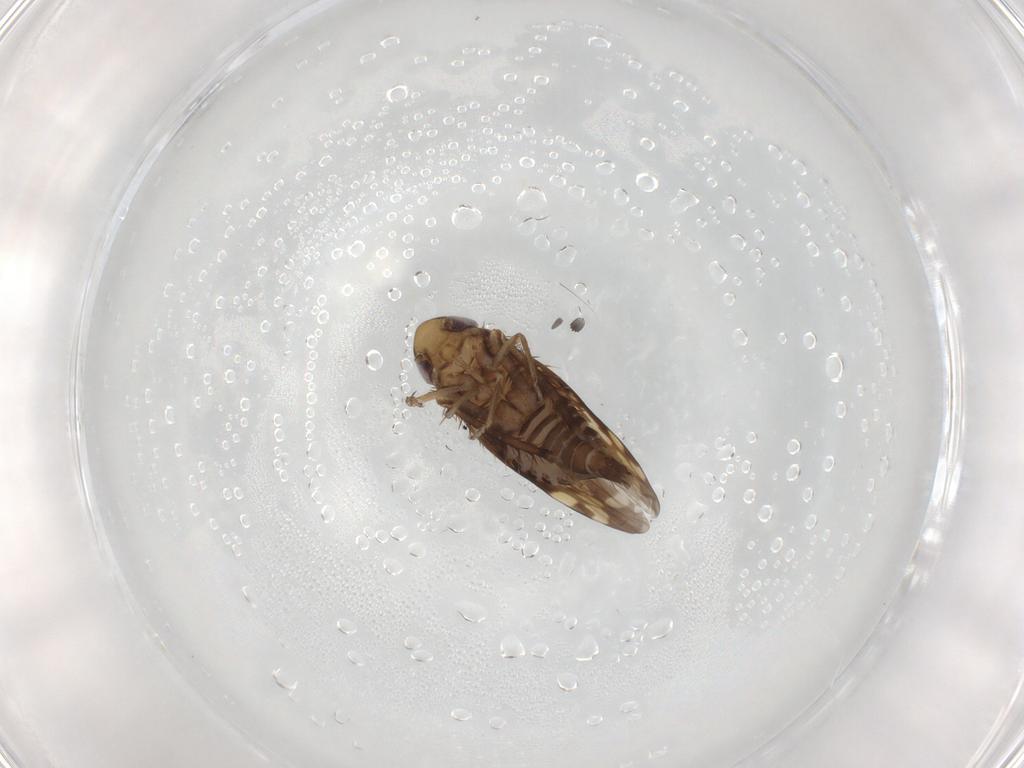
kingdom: Animalia
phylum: Arthropoda
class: Insecta
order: Hemiptera
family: Cicadellidae
